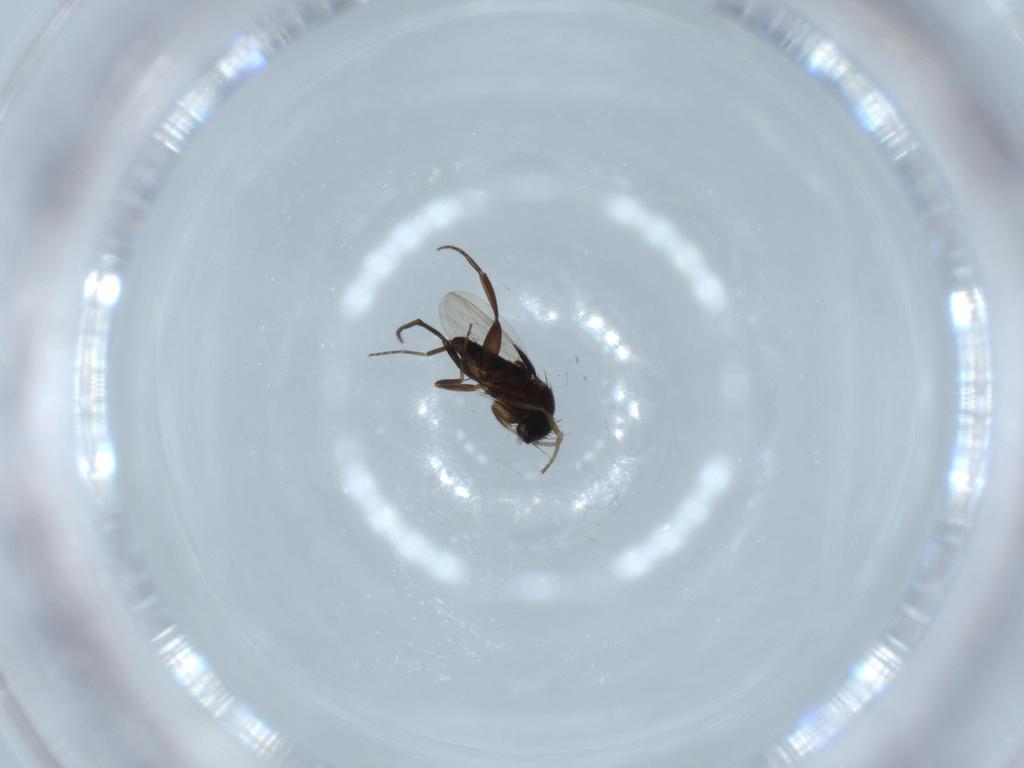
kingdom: Animalia
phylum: Arthropoda
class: Insecta
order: Diptera
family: Phoridae
